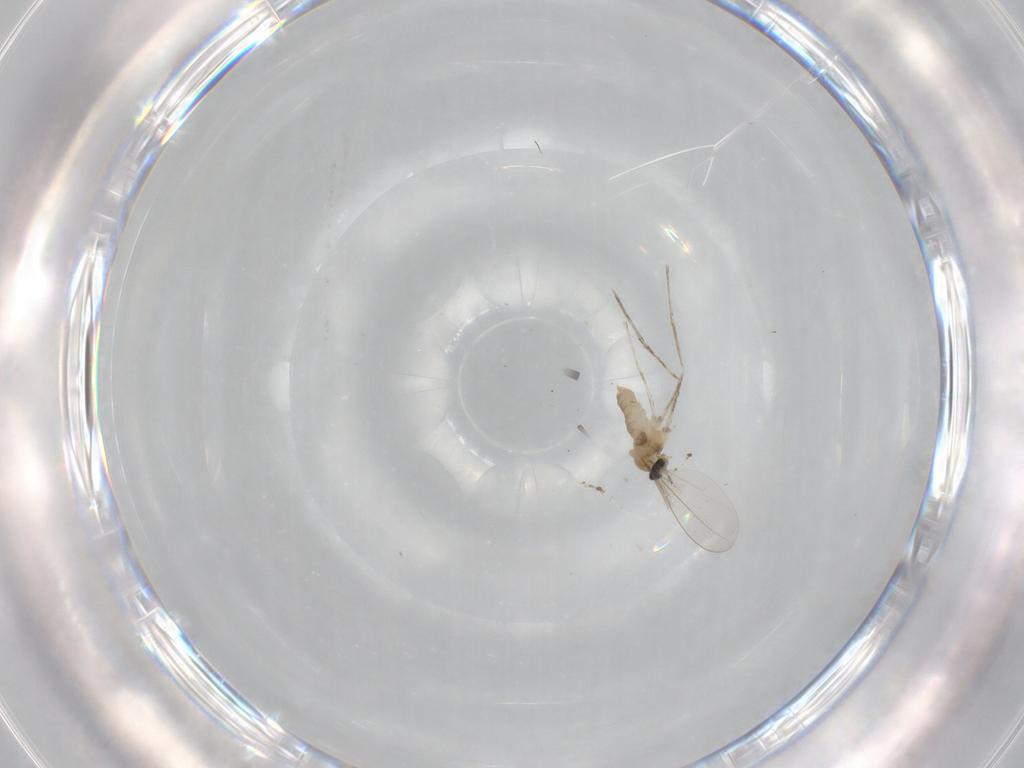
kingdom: Animalia
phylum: Arthropoda
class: Insecta
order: Diptera
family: Cecidomyiidae
